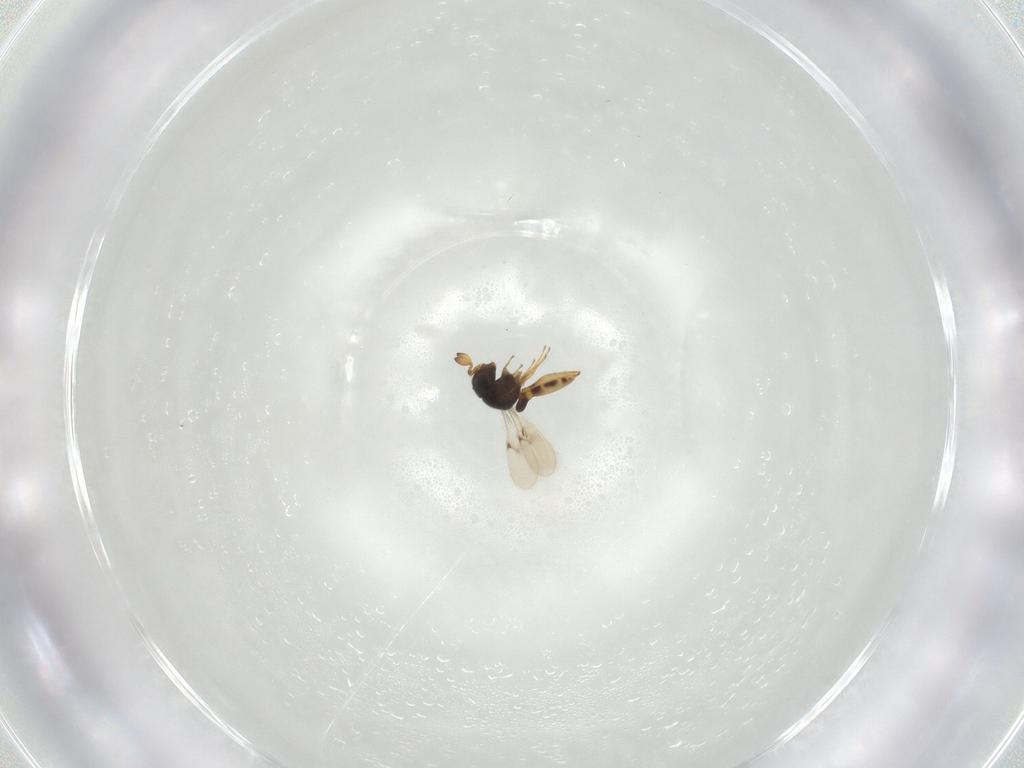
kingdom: Animalia
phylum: Arthropoda
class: Insecta
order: Hymenoptera
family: Scelionidae
